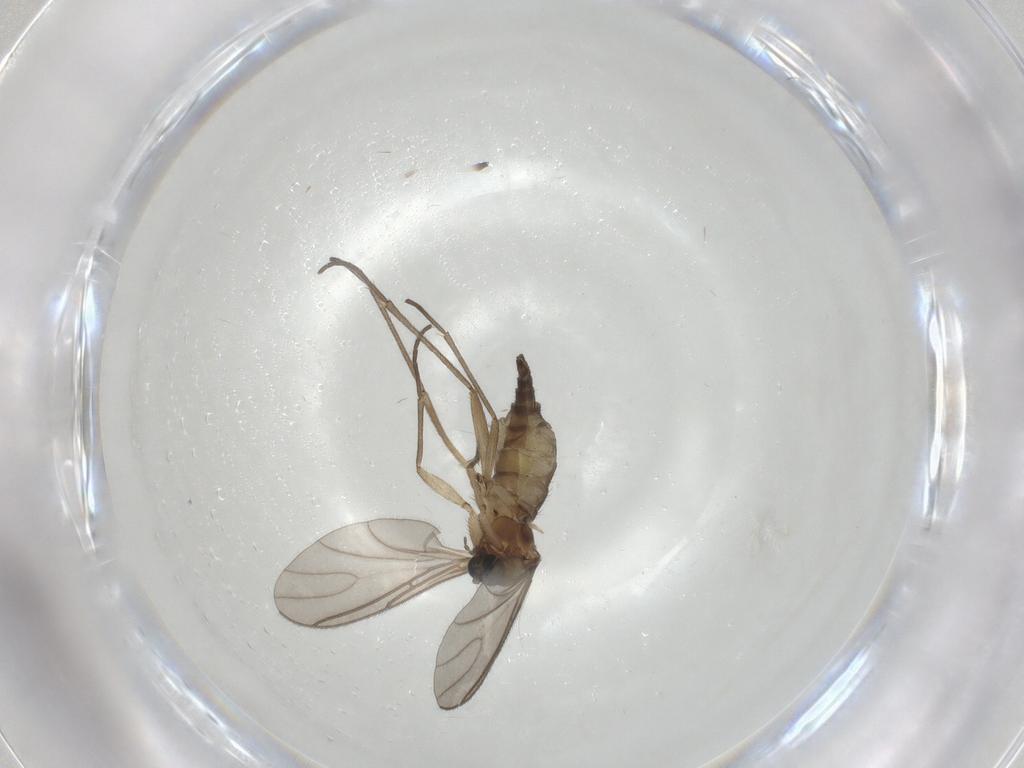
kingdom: Animalia
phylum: Arthropoda
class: Insecta
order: Diptera
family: Sciaridae
